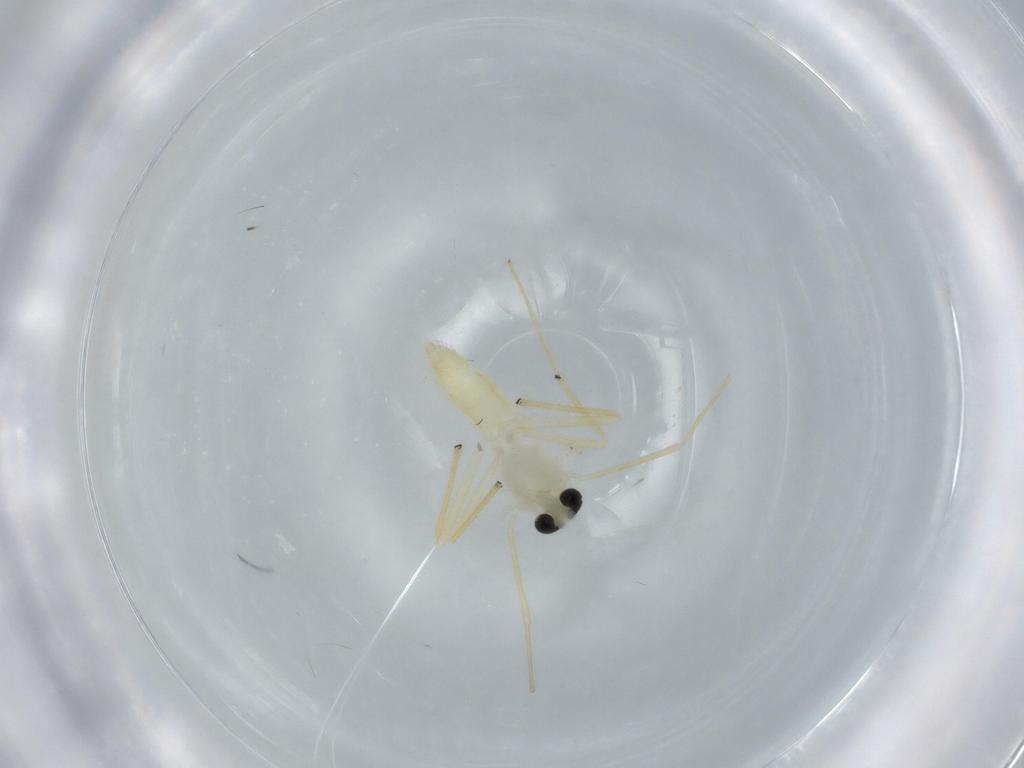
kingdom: Animalia
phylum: Arthropoda
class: Insecta
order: Diptera
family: Chironomidae
